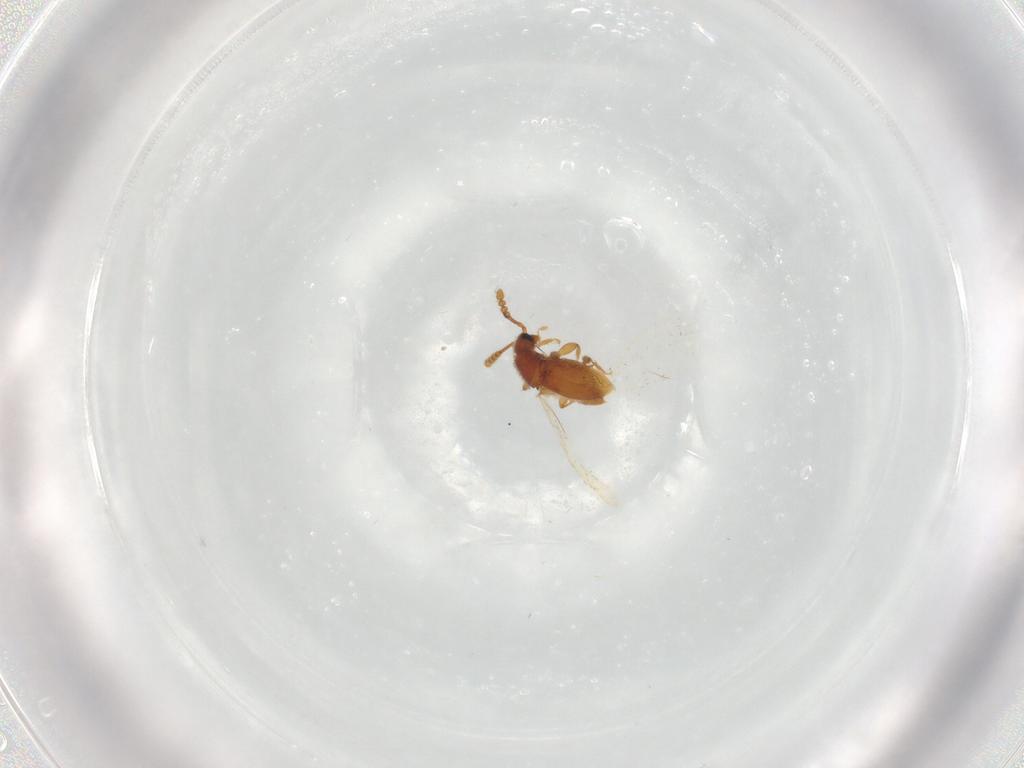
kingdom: Animalia
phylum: Arthropoda
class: Insecta
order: Coleoptera
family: Staphylinidae
